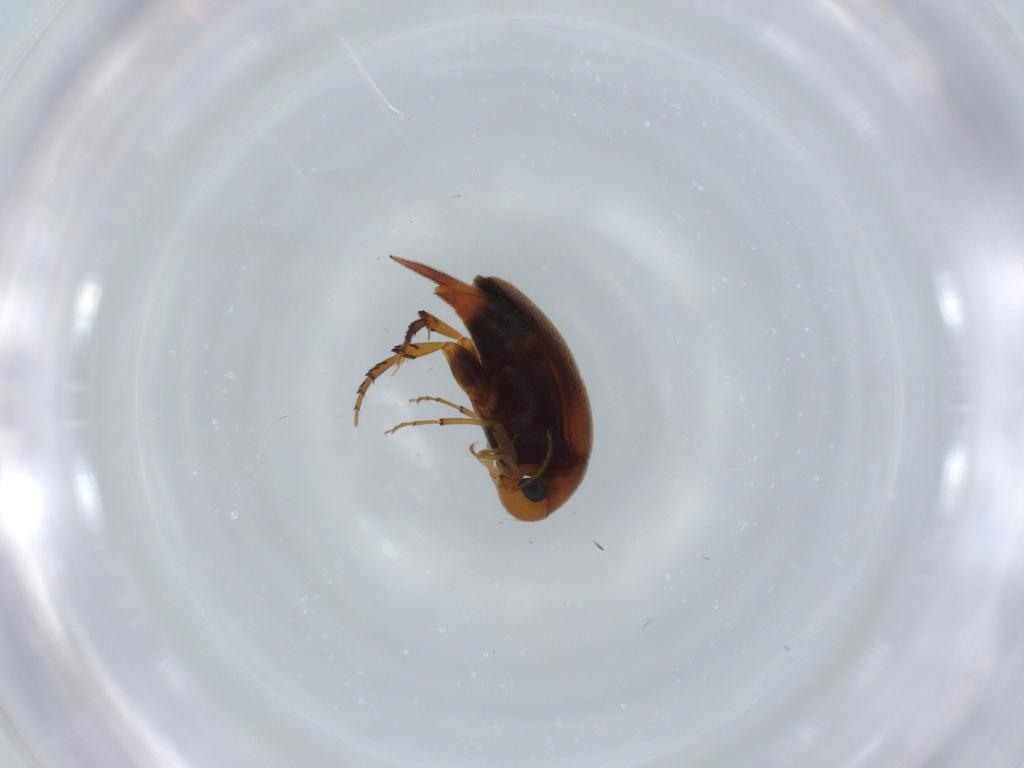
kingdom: Animalia
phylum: Arthropoda
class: Insecta
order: Coleoptera
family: Mordellidae
